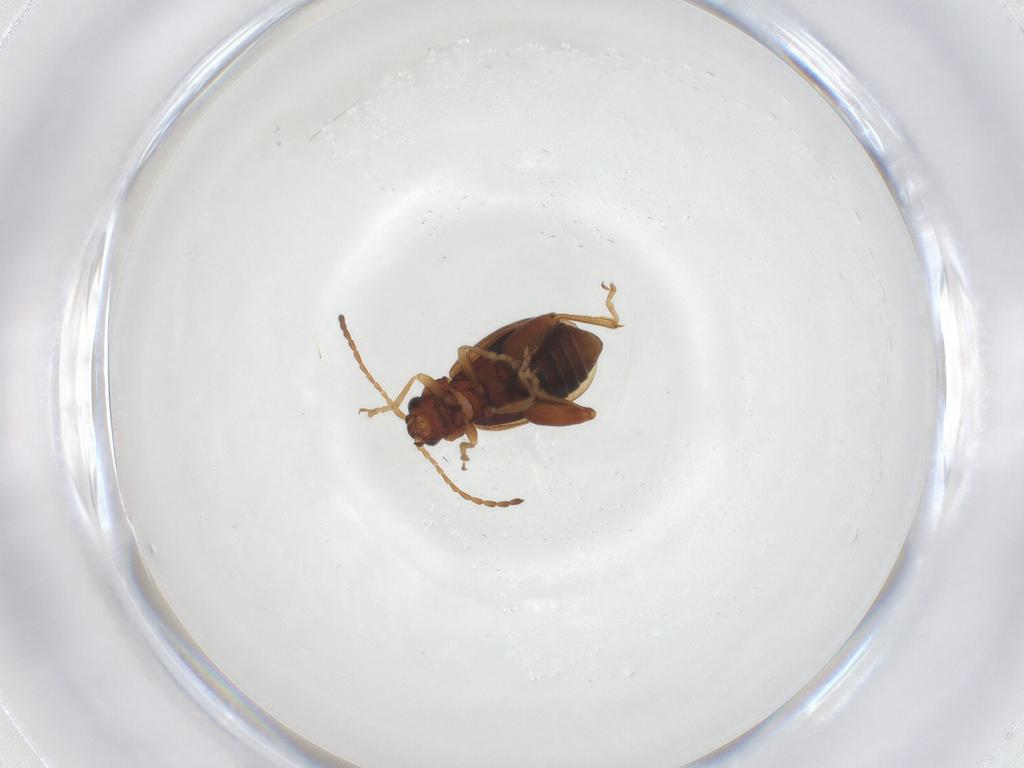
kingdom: Animalia
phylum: Arthropoda
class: Insecta
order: Coleoptera
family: Chrysomelidae
